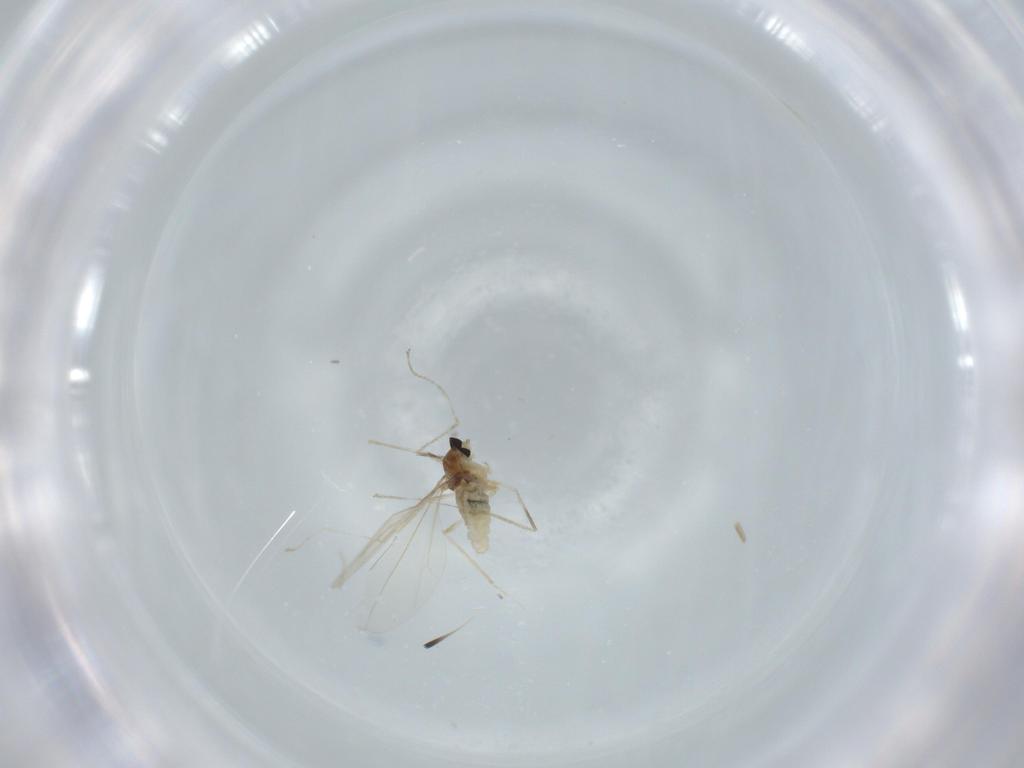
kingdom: Animalia
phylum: Arthropoda
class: Insecta
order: Diptera
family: Cecidomyiidae
